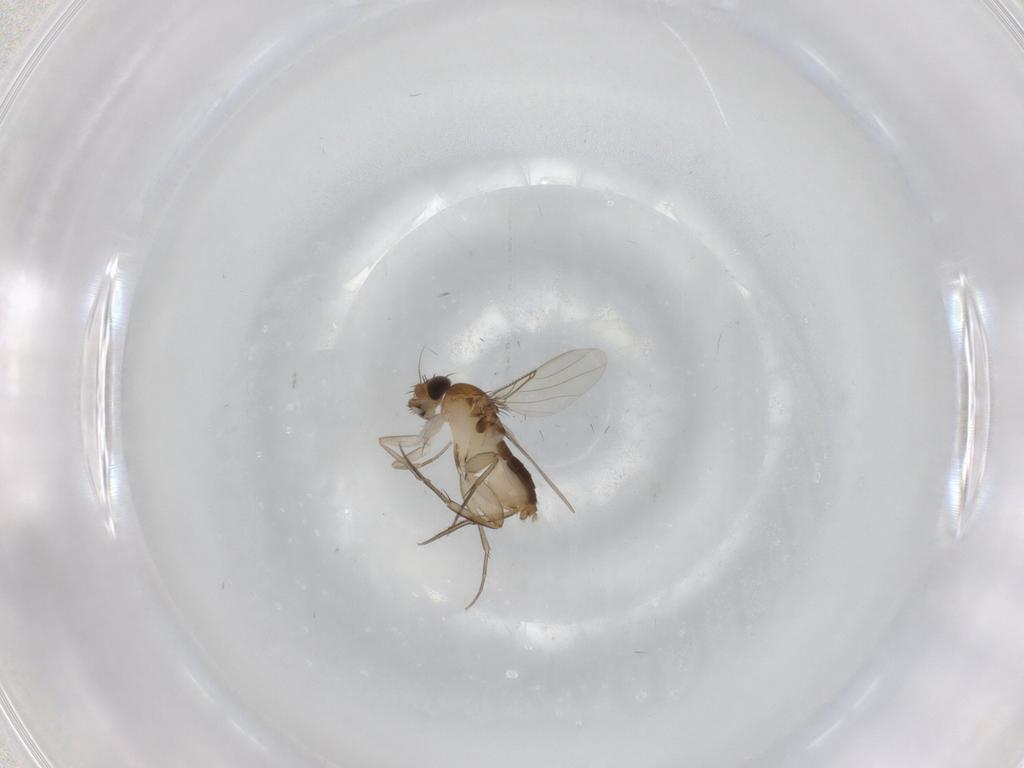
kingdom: Animalia
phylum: Arthropoda
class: Insecta
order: Diptera
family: Phoridae
